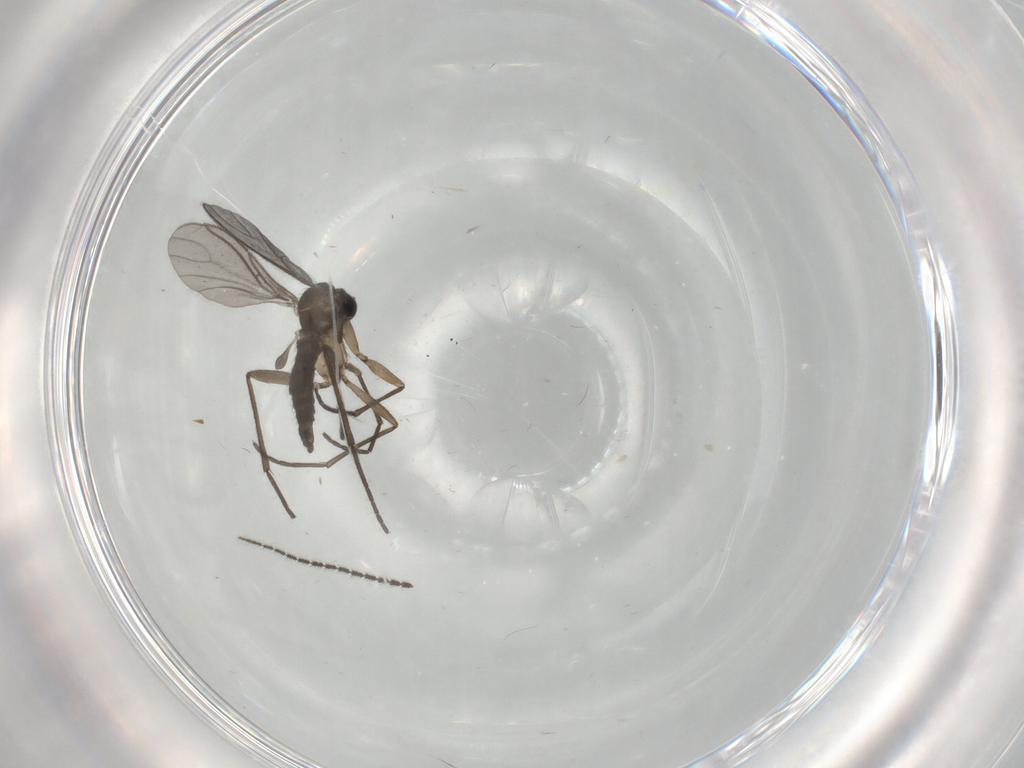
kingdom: Animalia
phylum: Arthropoda
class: Insecta
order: Diptera
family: Sciaridae
